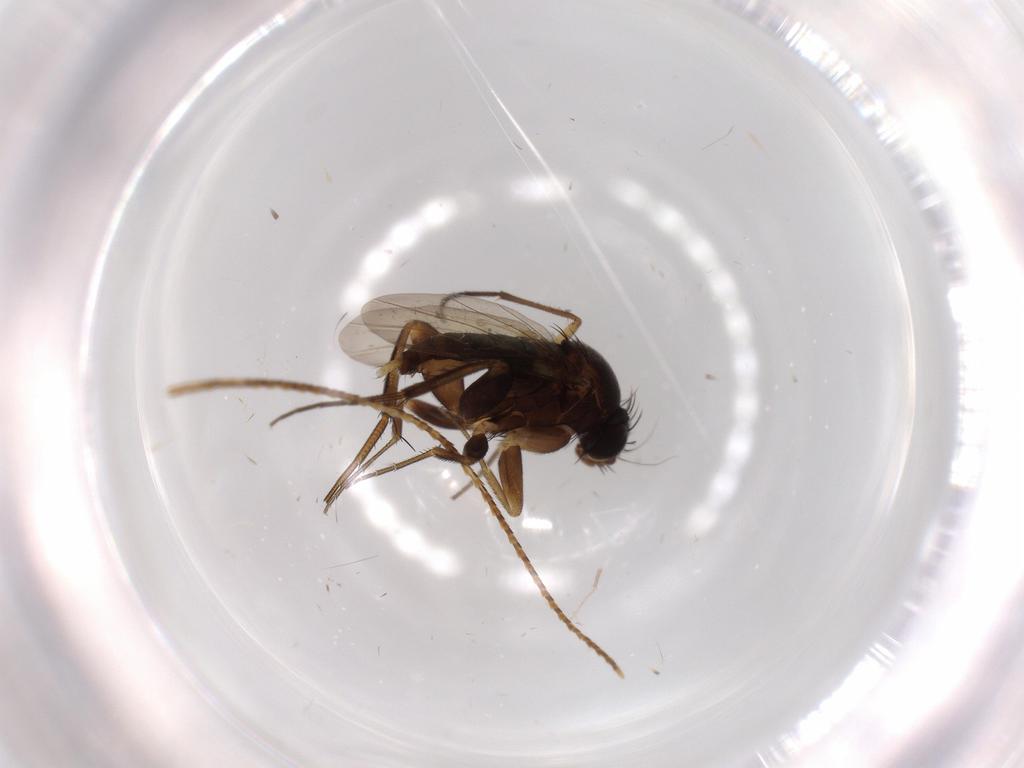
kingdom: Animalia
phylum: Arthropoda
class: Insecta
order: Diptera
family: Phoridae
